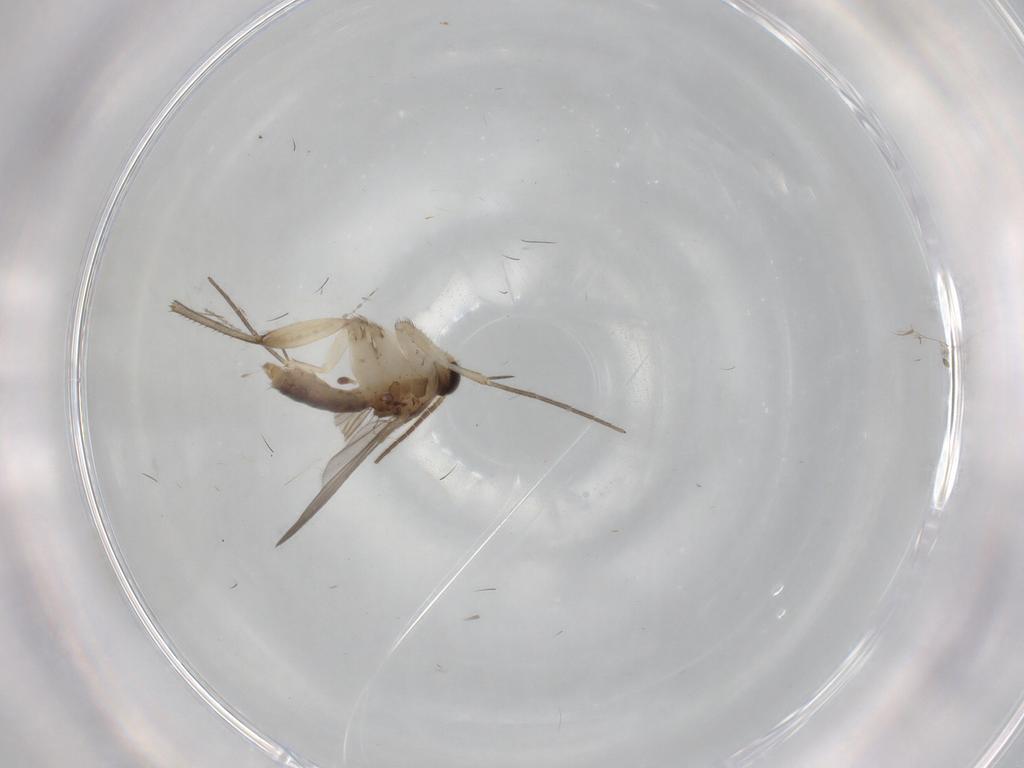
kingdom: Animalia
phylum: Arthropoda
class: Insecta
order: Diptera
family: Mycetophilidae
